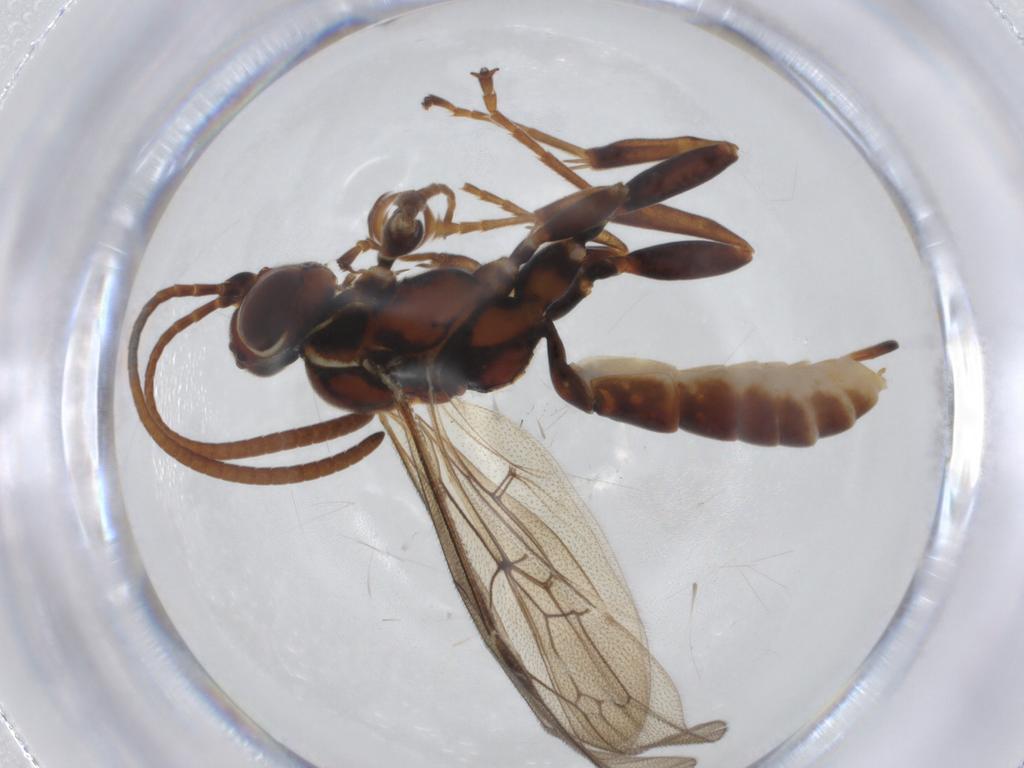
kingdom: Animalia
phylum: Arthropoda
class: Insecta
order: Hymenoptera
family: Ichneumonidae
